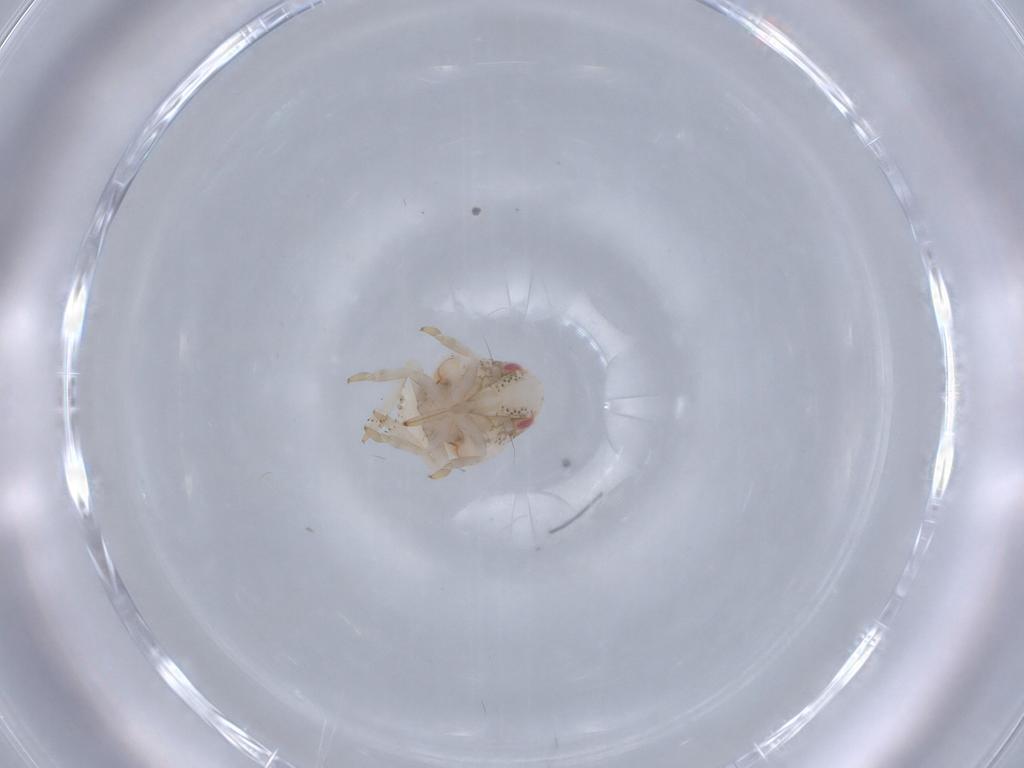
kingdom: Animalia
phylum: Arthropoda
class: Insecta
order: Hemiptera
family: Acanaloniidae
